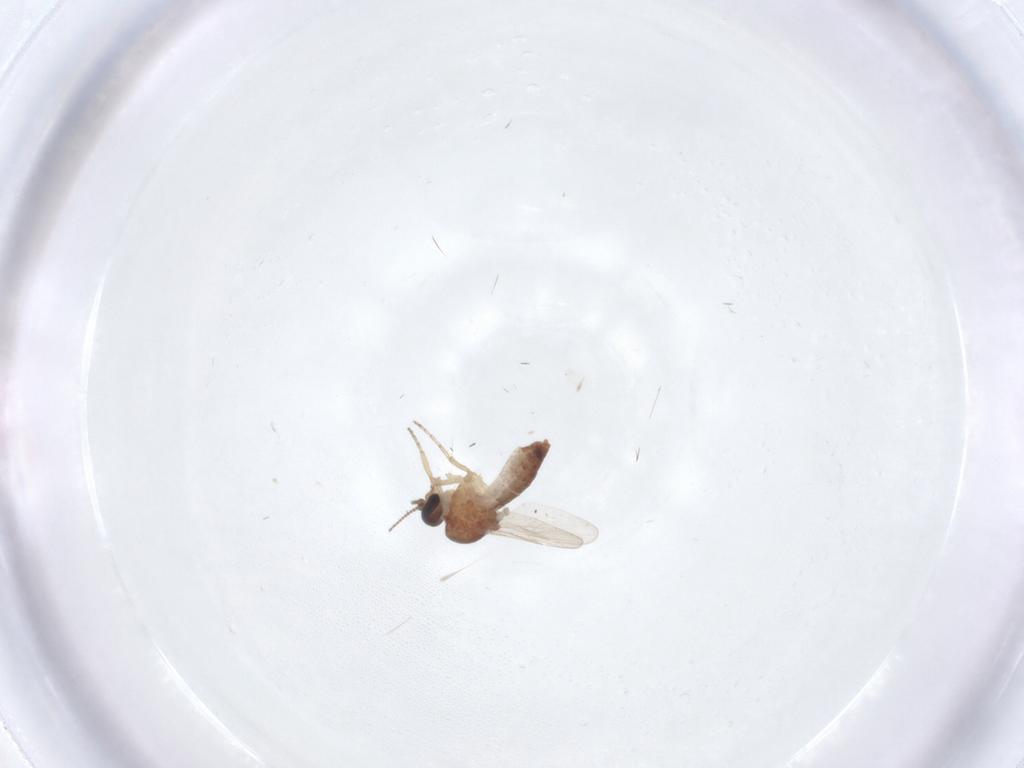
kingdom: Animalia
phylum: Arthropoda
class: Insecta
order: Diptera
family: Ceratopogonidae
